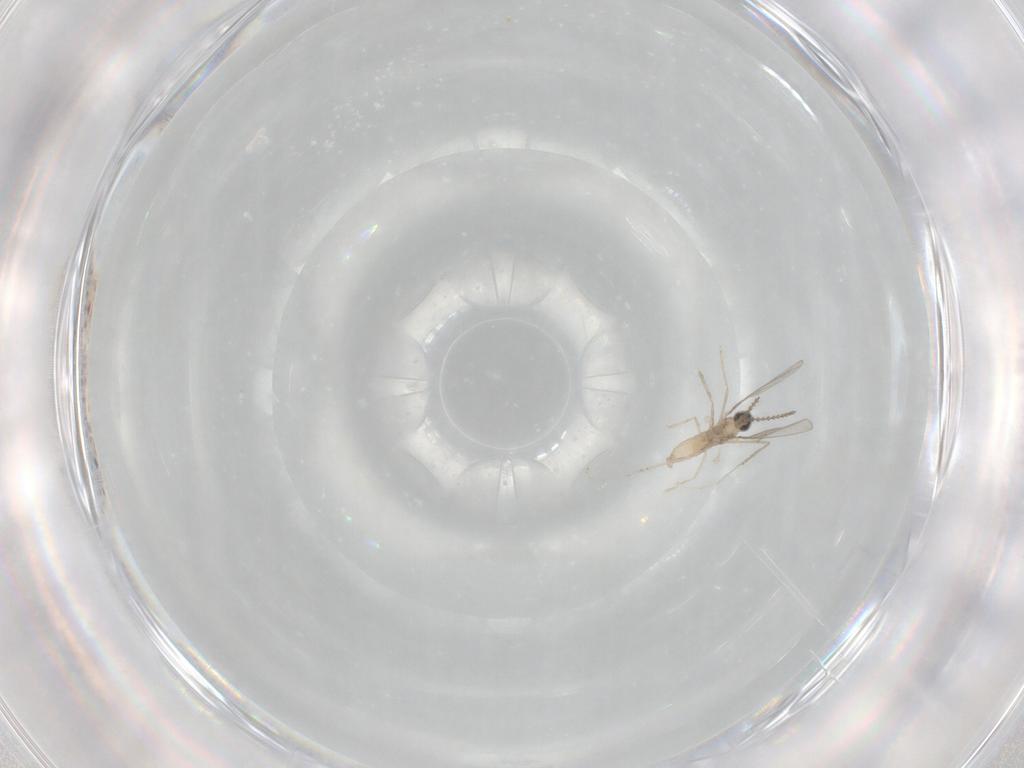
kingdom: Animalia
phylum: Arthropoda
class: Insecta
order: Diptera
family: Cecidomyiidae
